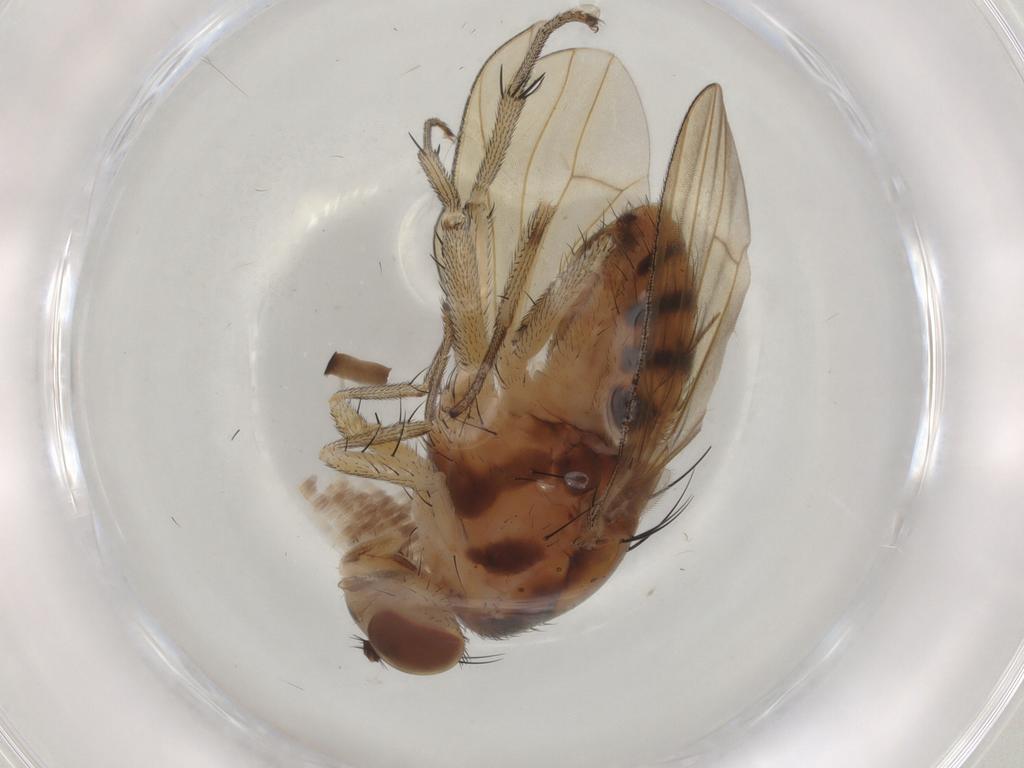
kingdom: Animalia
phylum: Arthropoda
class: Insecta
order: Diptera
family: Lauxaniidae
